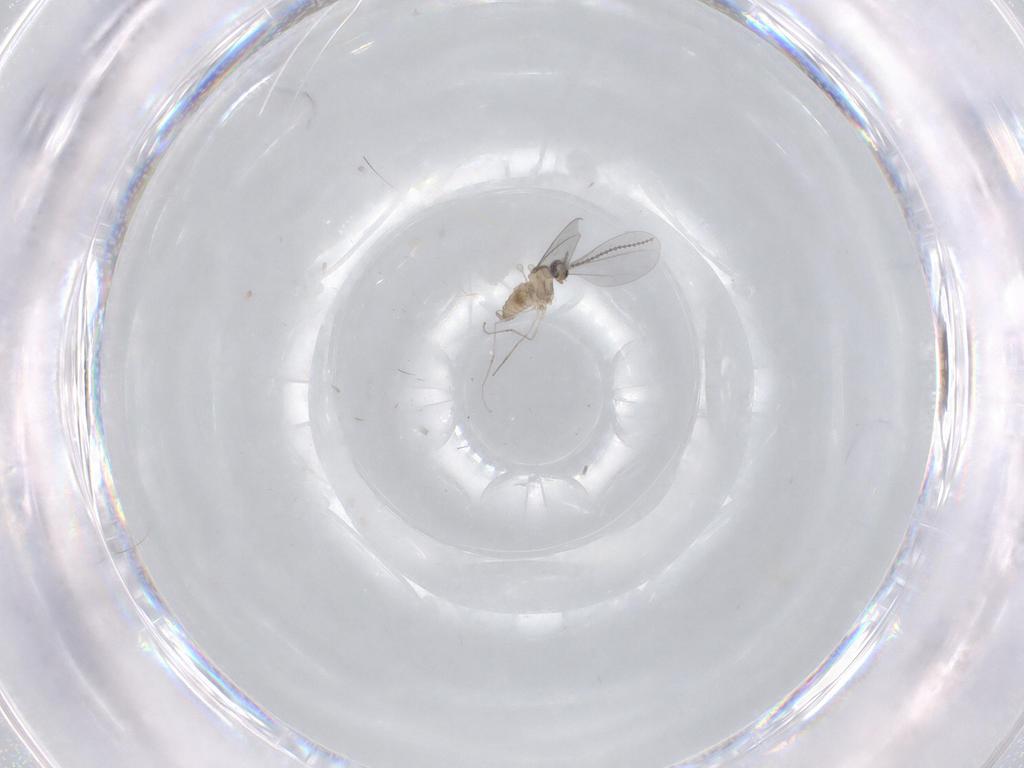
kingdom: Animalia
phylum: Arthropoda
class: Insecta
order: Diptera
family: Cecidomyiidae
